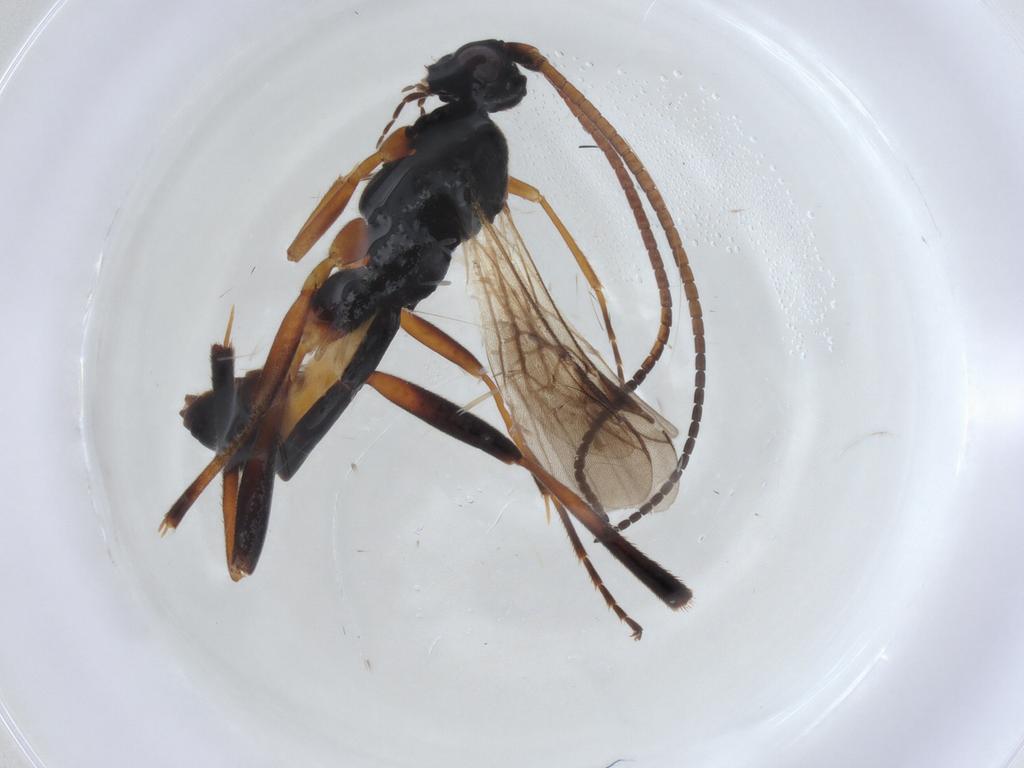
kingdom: Animalia
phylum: Arthropoda
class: Insecta
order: Hymenoptera
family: Braconidae
